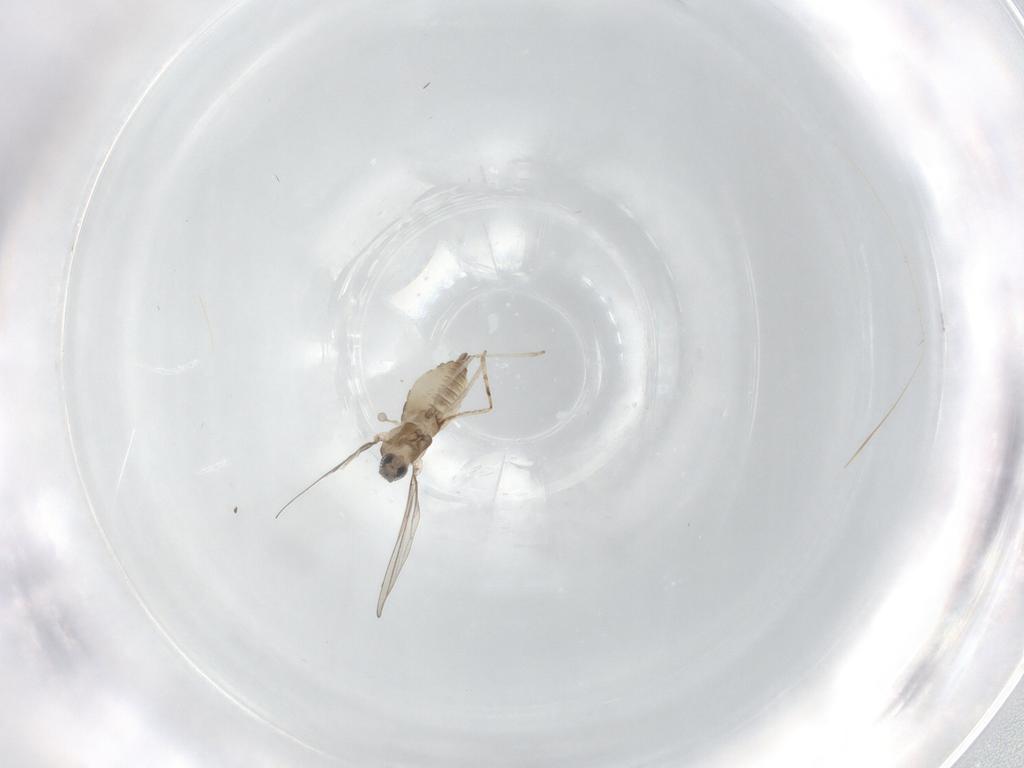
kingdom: Animalia
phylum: Arthropoda
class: Insecta
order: Diptera
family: Cecidomyiidae
